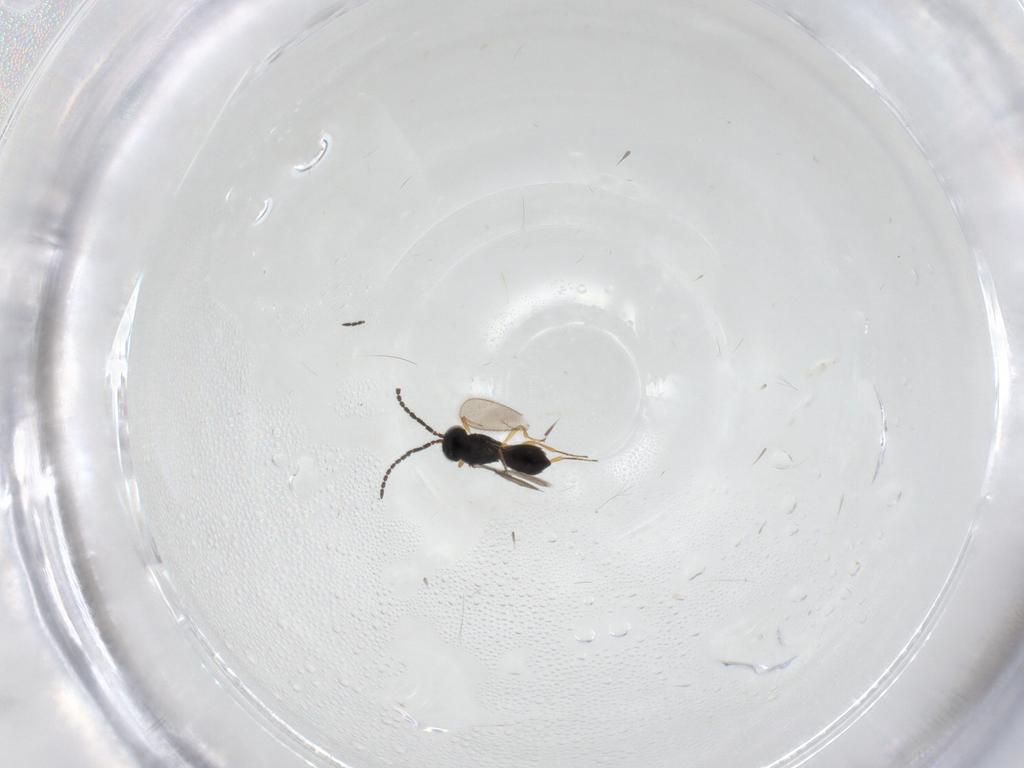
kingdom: Animalia
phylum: Arthropoda
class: Insecta
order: Hymenoptera
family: Scelionidae
